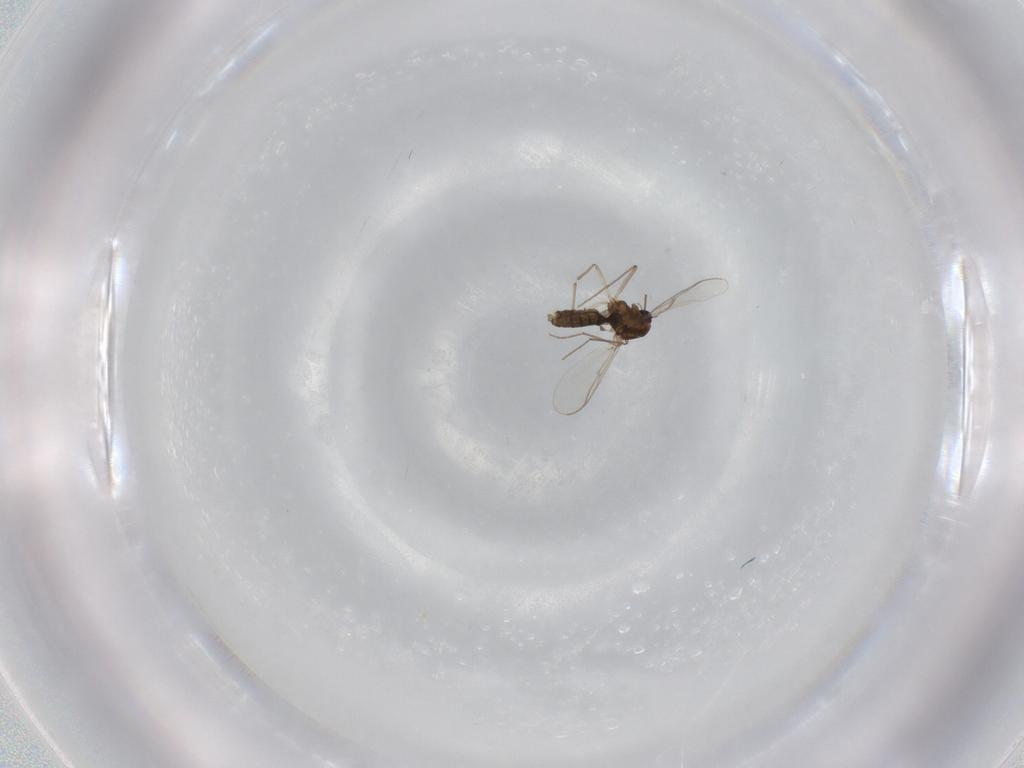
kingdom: Animalia
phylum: Arthropoda
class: Insecta
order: Diptera
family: Chironomidae
